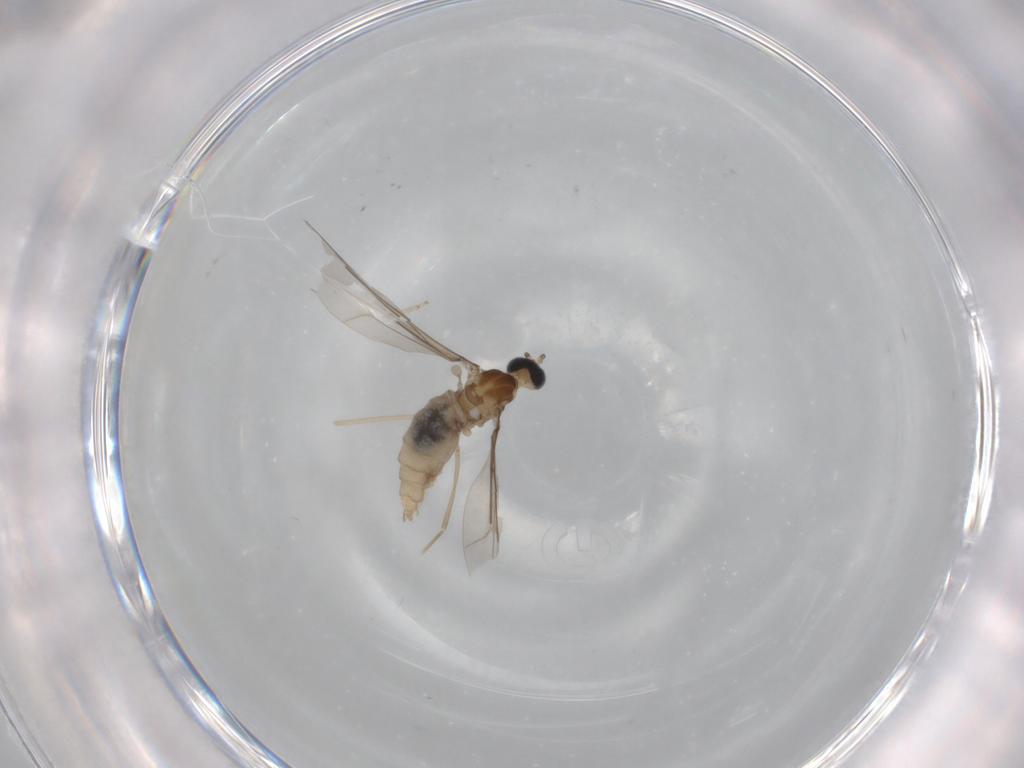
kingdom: Animalia
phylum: Arthropoda
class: Insecta
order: Diptera
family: Cecidomyiidae
